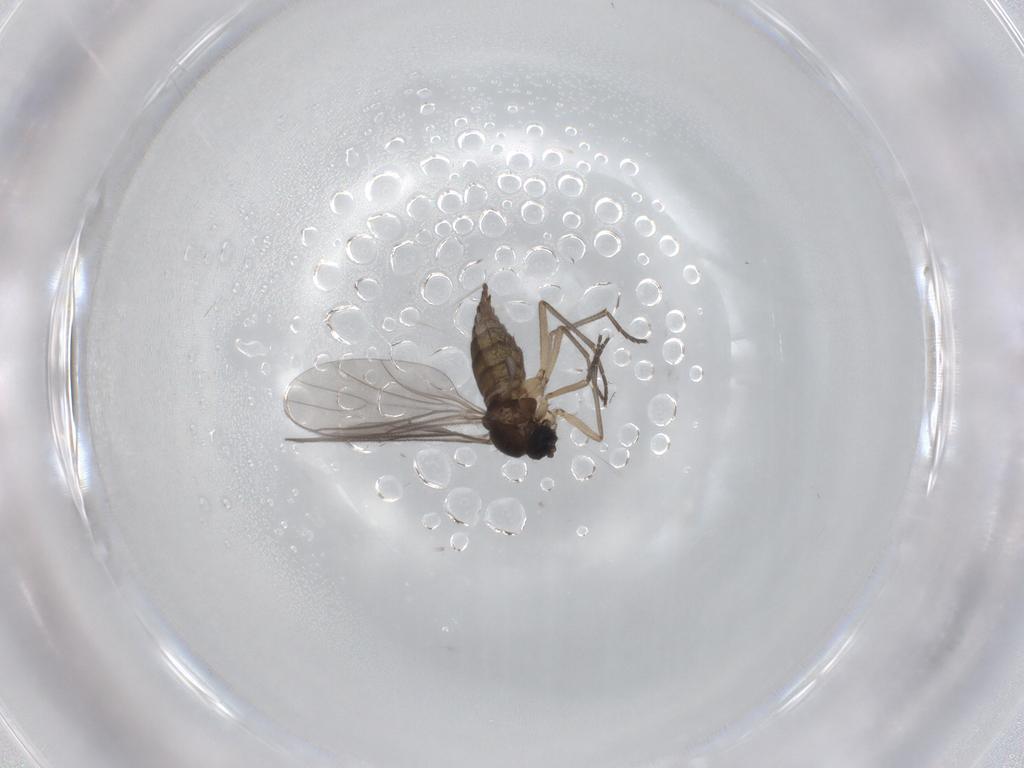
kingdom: Animalia
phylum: Arthropoda
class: Insecta
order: Diptera
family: Sciaridae
